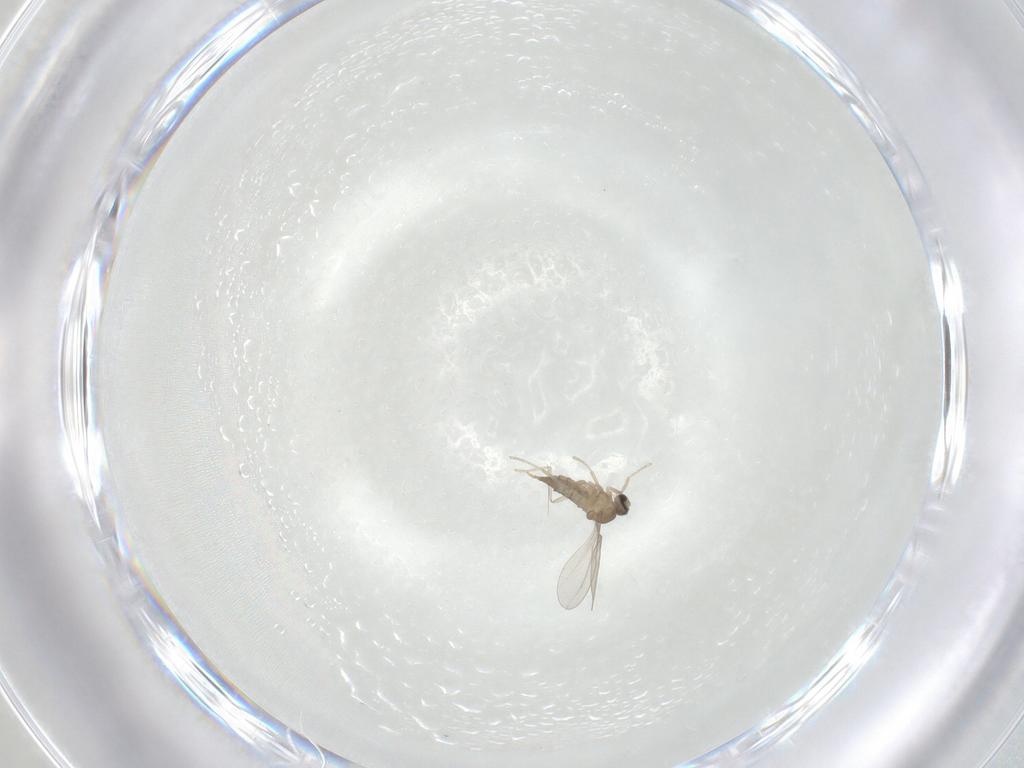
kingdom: Animalia
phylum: Arthropoda
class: Insecta
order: Diptera
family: Cecidomyiidae
